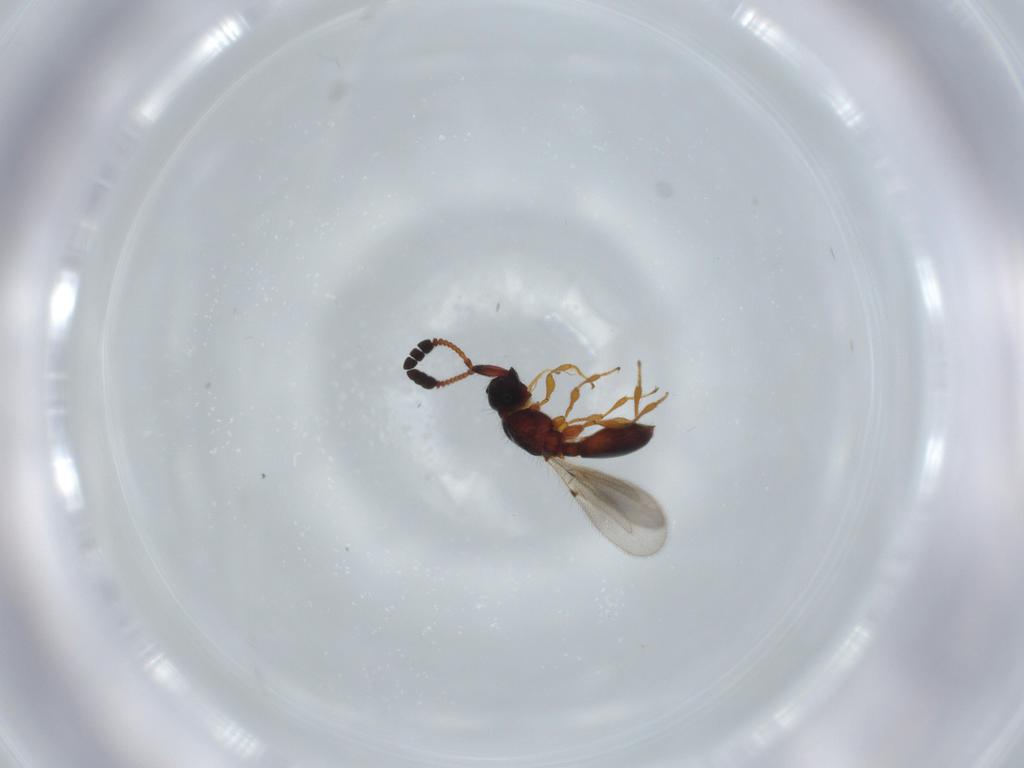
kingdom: Animalia
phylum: Arthropoda
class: Insecta
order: Hymenoptera
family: Diapriidae
